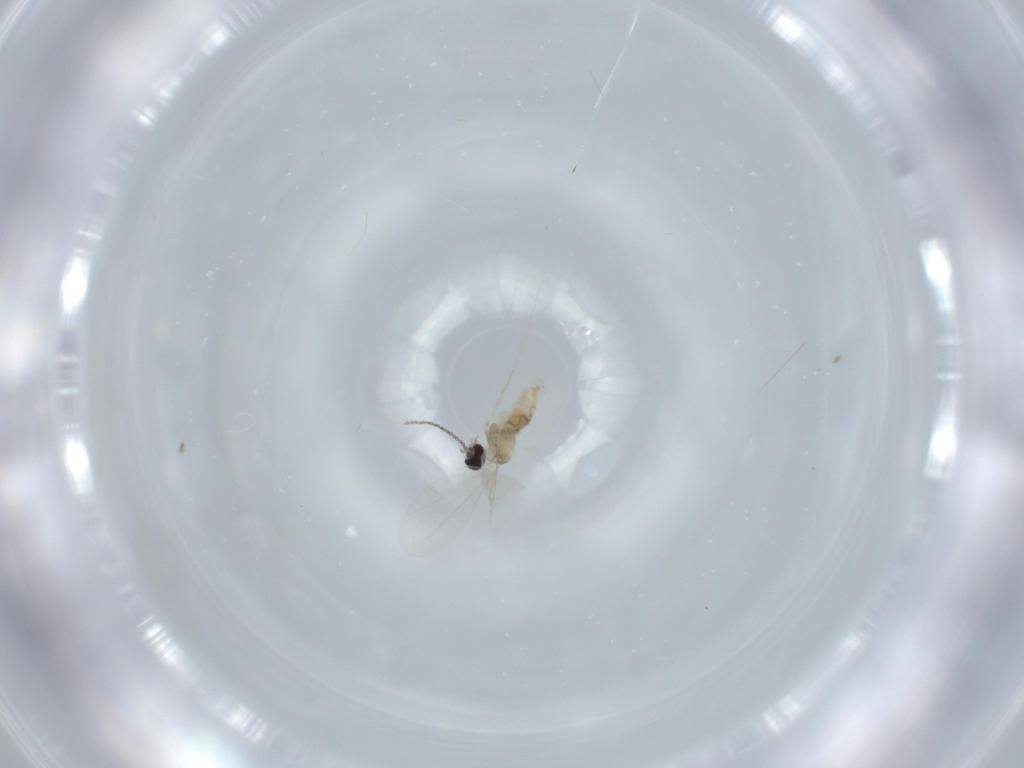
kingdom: Animalia
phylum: Arthropoda
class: Insecta
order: Diptera
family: Cecidomyiidae
